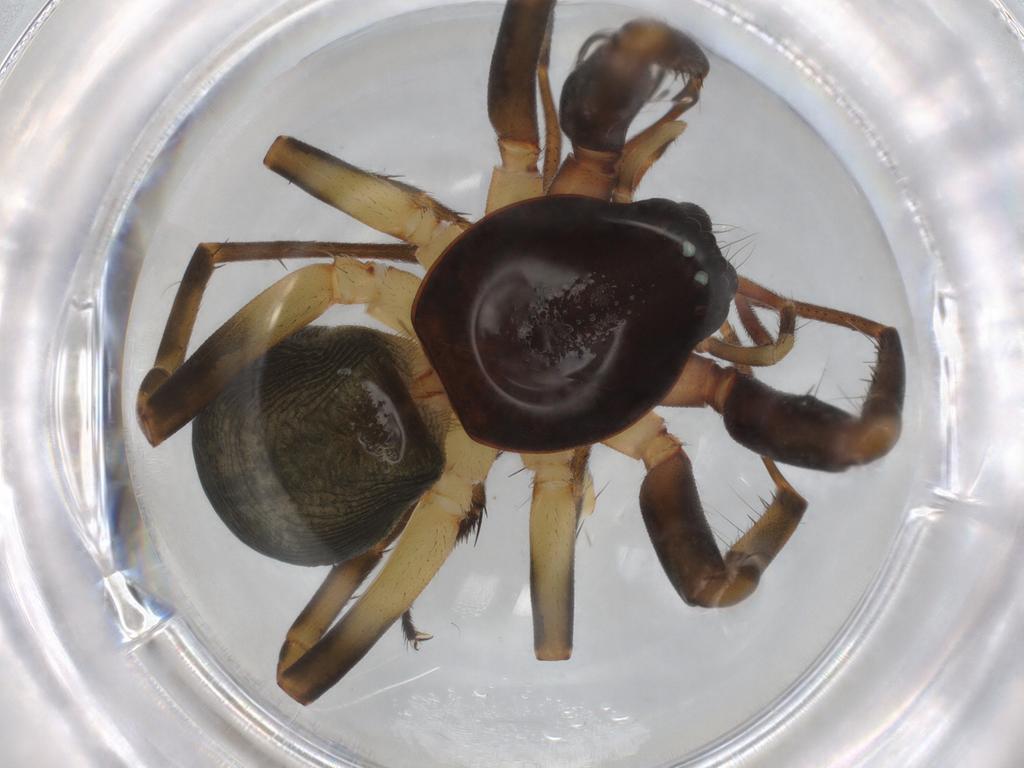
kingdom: Animalia
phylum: Arthropoda
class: Arachnida
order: Araneae
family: Trachelidae
